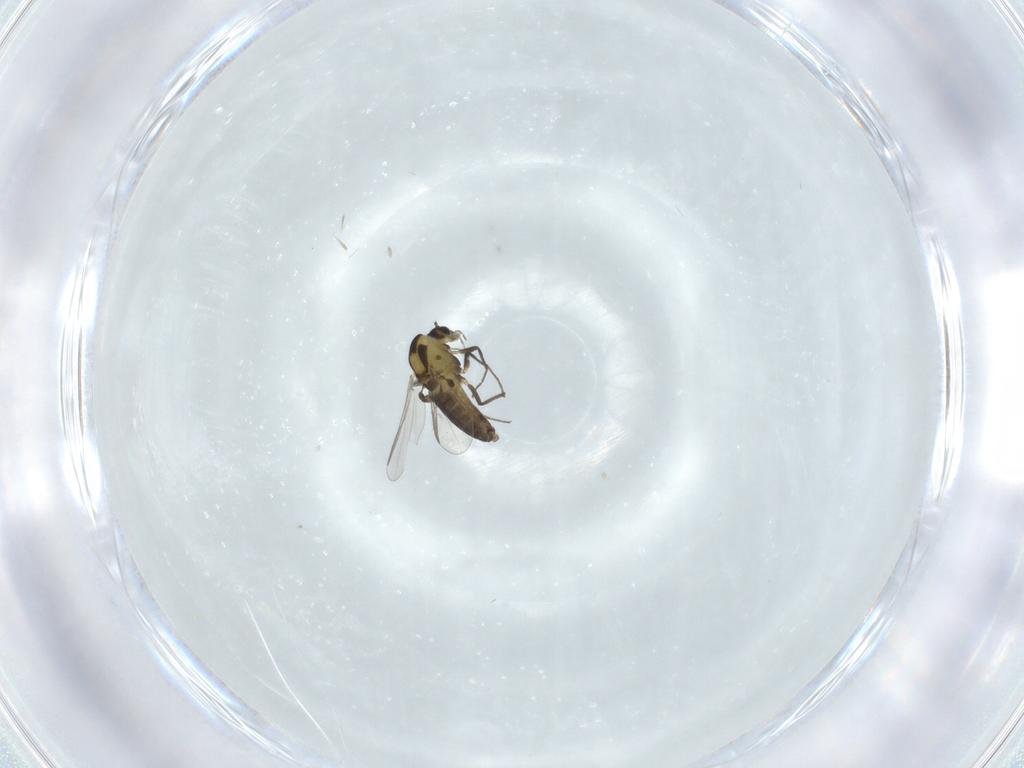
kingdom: Animalia
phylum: Arthropoda
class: Insecta
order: Diptera
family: Chironomidae
